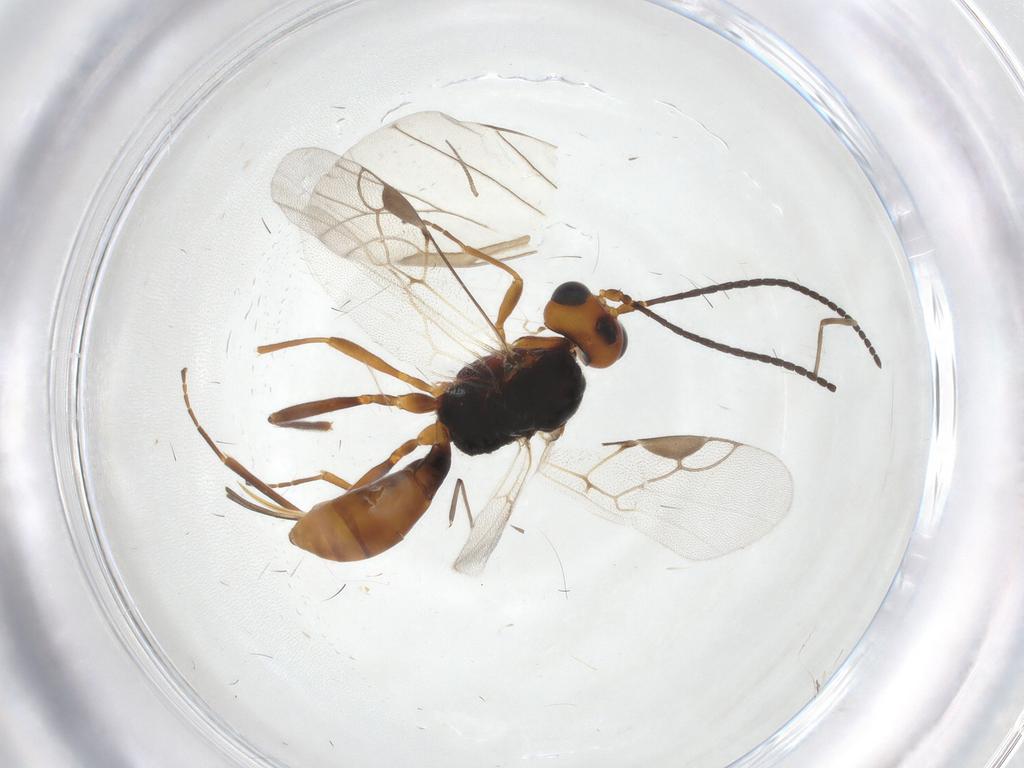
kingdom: Animalia
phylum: Arthropoda
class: Insecta
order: Hymenoptera
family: Braconidae
